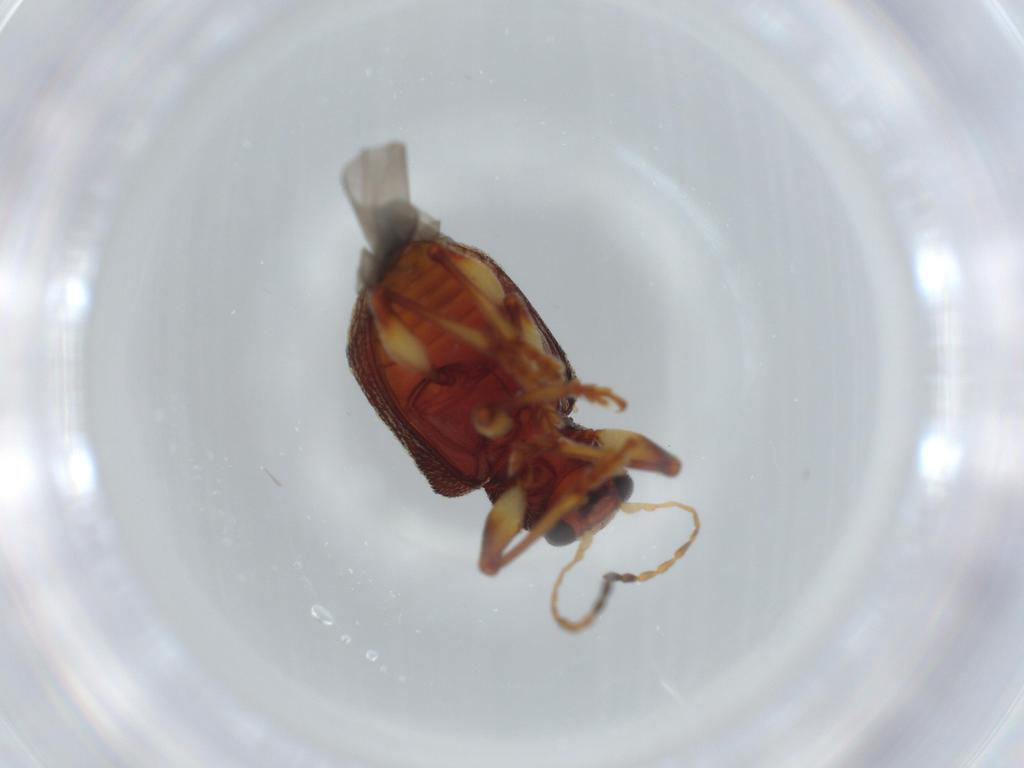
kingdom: Animalia
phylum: Arthropoda
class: Insecta
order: Coleoptera
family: Chrysomelidae
